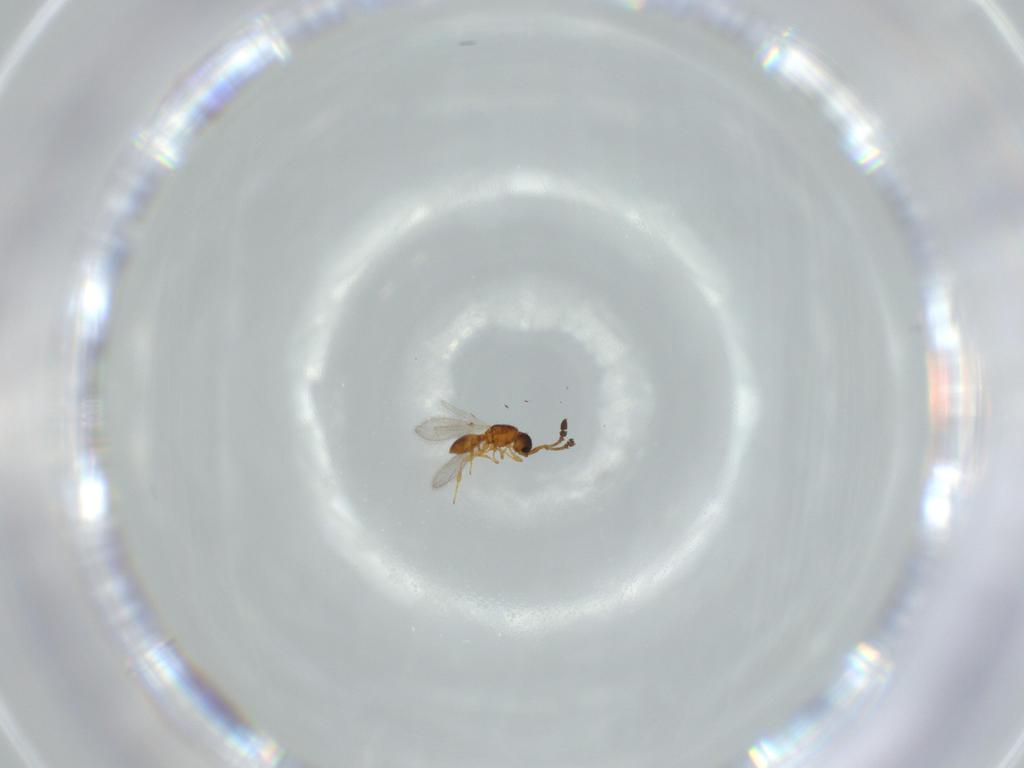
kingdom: Animalia
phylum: Arthropoda
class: Insecta
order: Hymenoptera
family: Diapriidae
